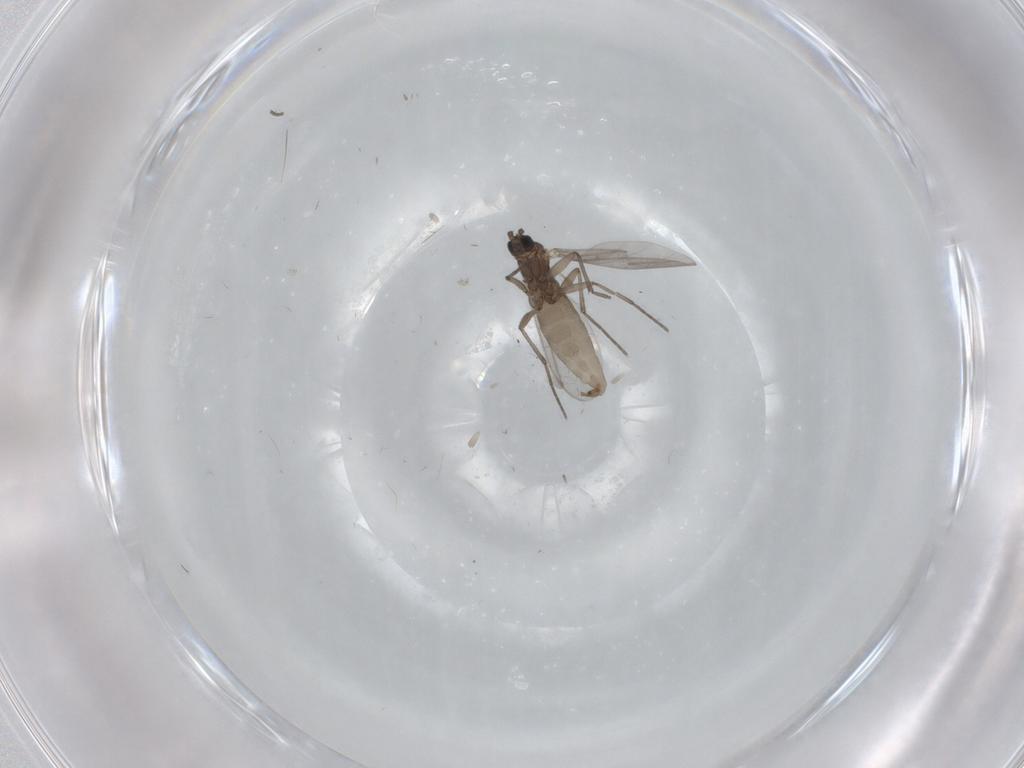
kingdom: Animalia
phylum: Arthropoda
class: Insecta
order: Diptera
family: Sciaridae
